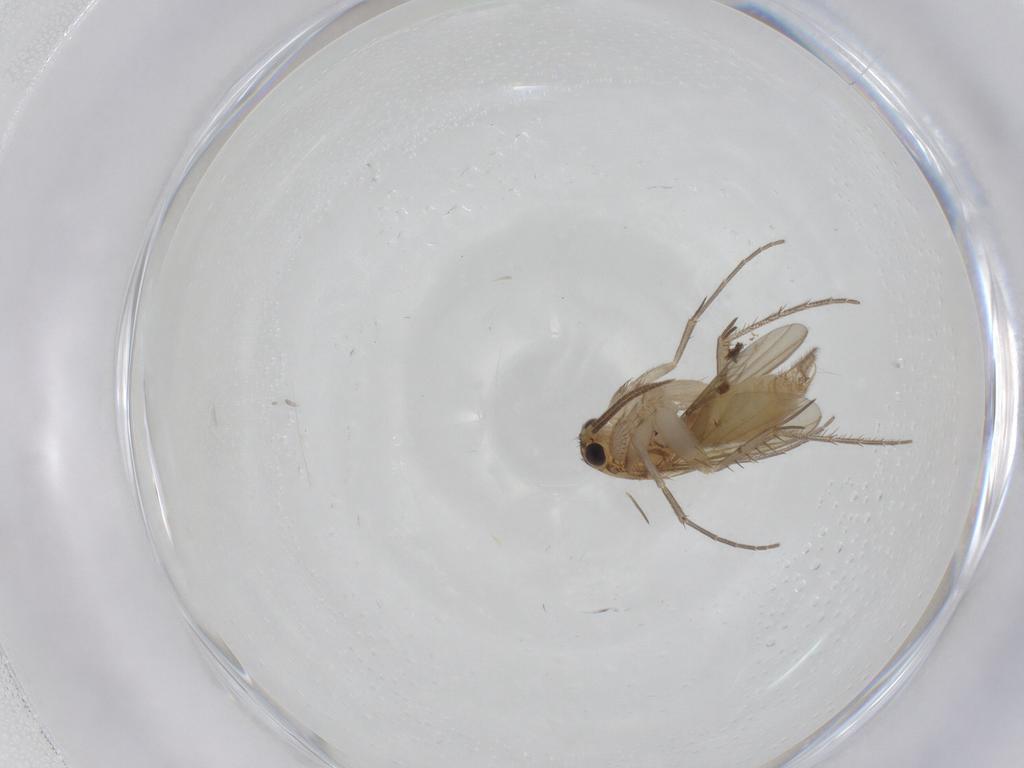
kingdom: Animalia
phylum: Arthropoda
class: Insecta
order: Diptera
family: Mycetophilidae
